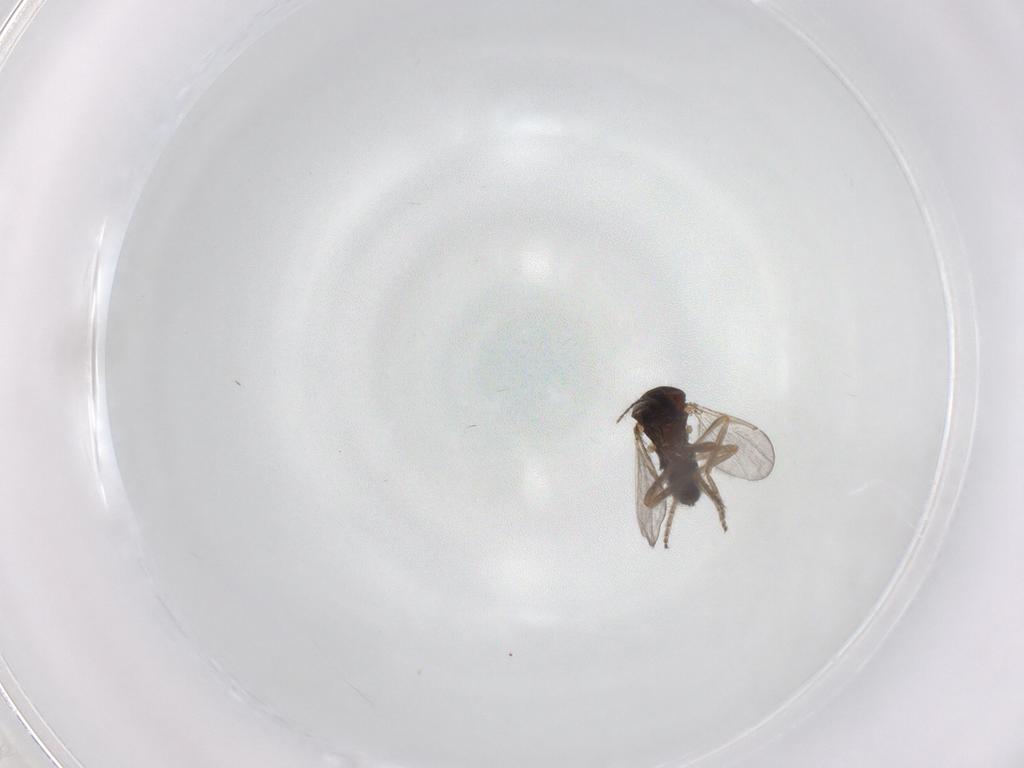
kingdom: Animalia
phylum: Arthropoda
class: Insecta
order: Diptera
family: Ceratopogonidae
